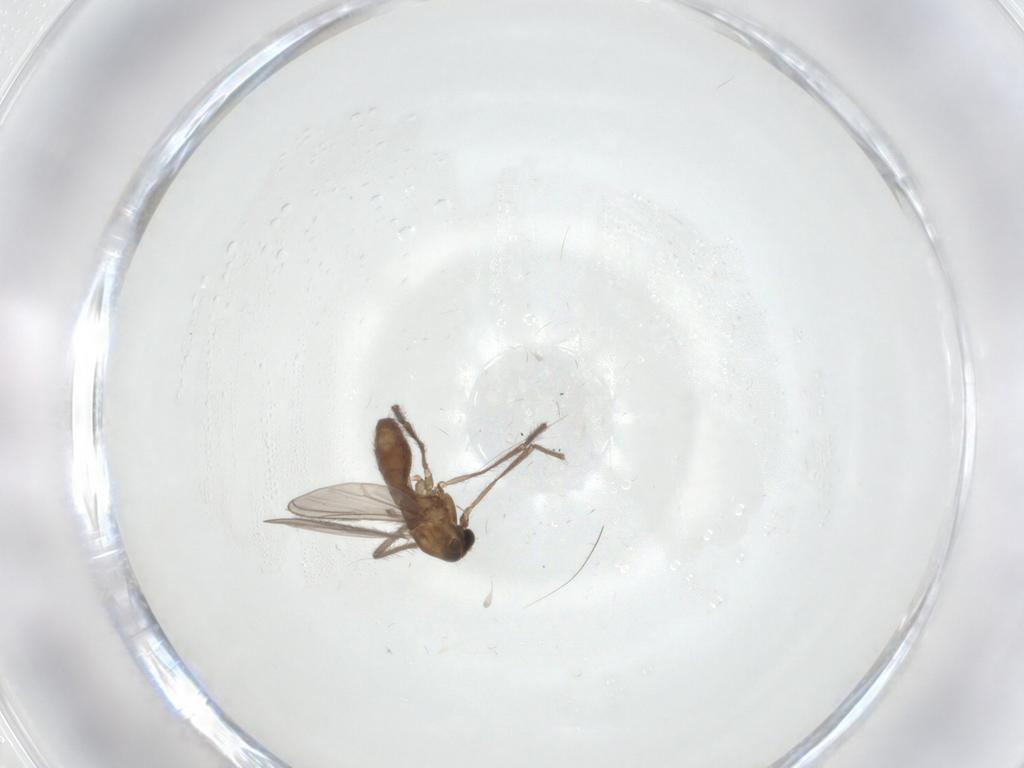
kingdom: Animalia
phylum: Arthropoda
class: Insecta
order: Diptera
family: Chironomidae
